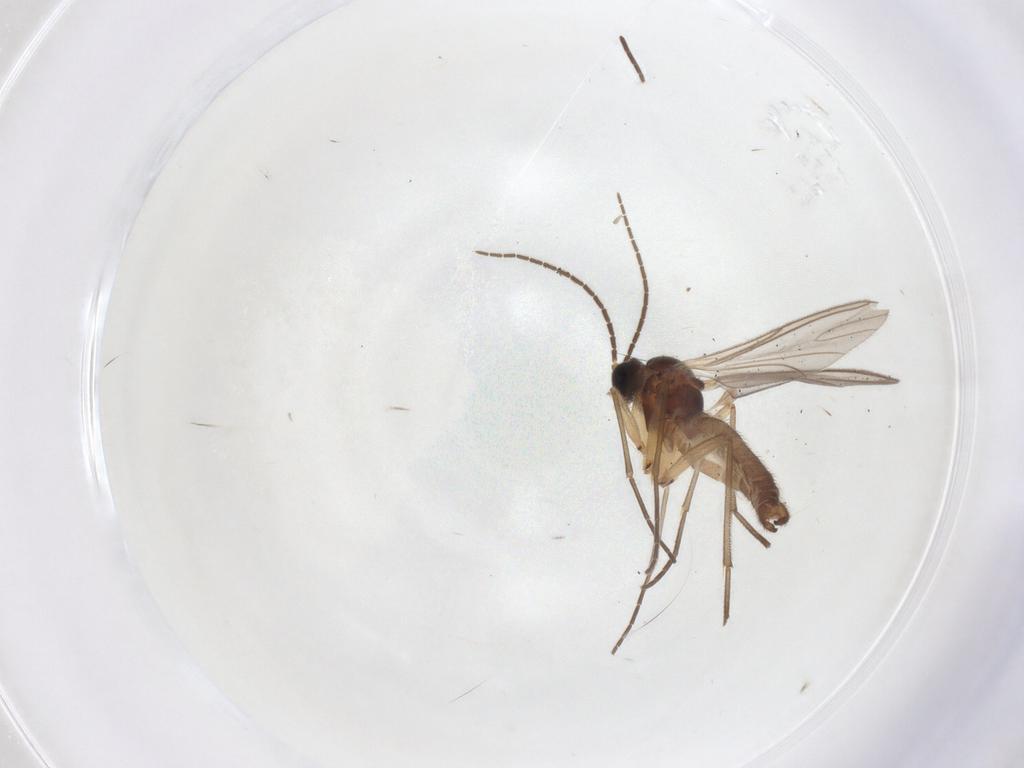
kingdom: Animalia
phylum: Arthropoda
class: Insecta
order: Diptera
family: Sciaridae
